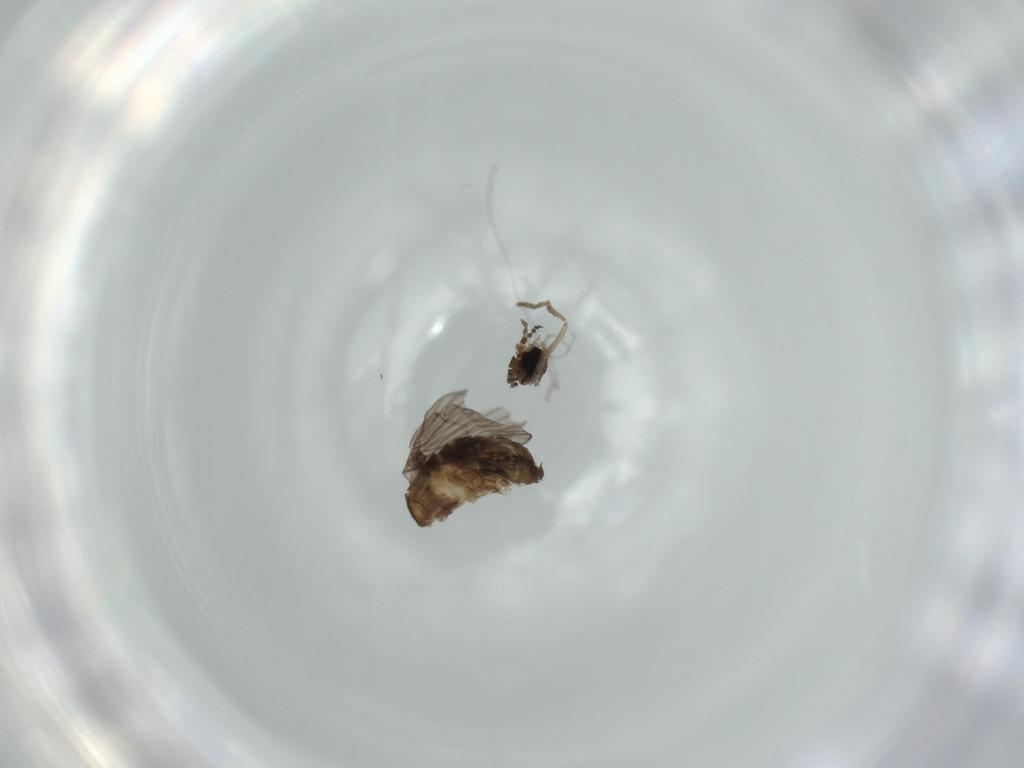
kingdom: Animalia
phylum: Arthropoda
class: Insecta
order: Diptera
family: Psychodidae
